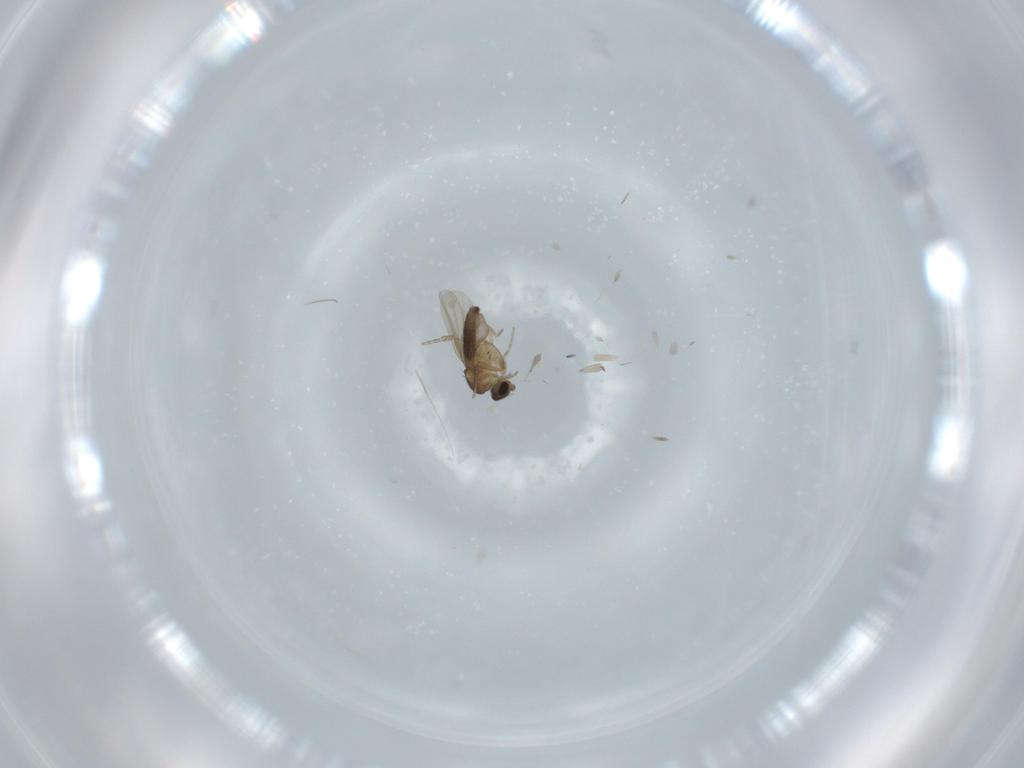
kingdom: Animalia
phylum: Arthropoda
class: Insecta
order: Diptera
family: Phoridae
